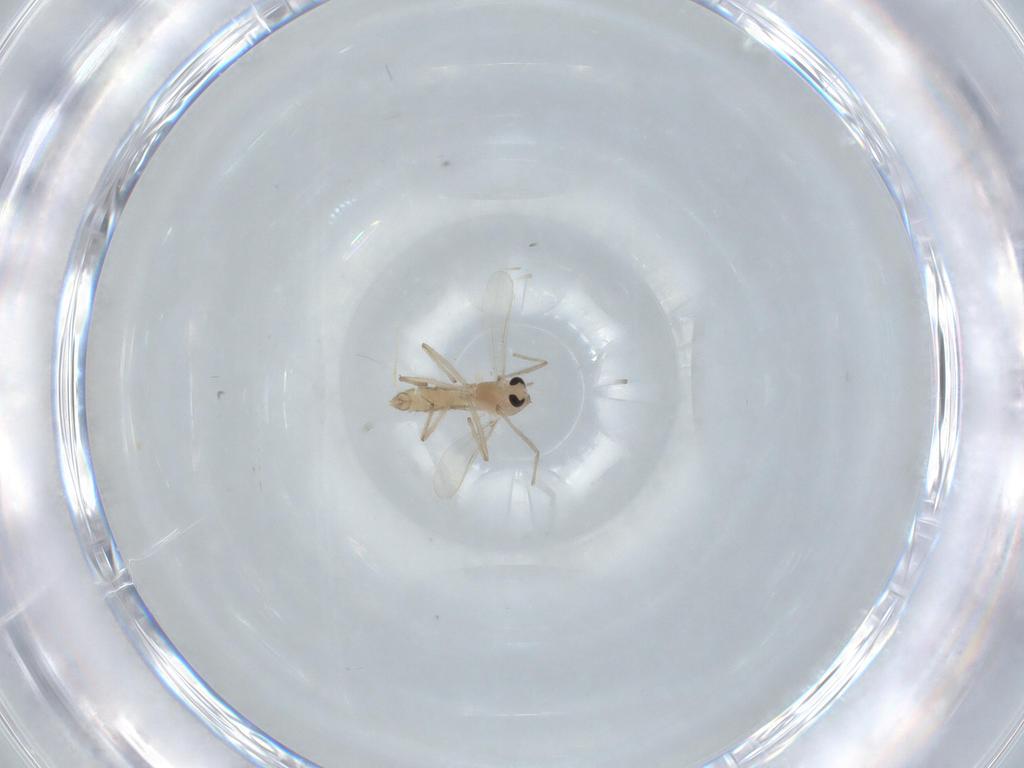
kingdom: Animalia
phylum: Arthropoda
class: Insecta
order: Diptera
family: Chironomidae
